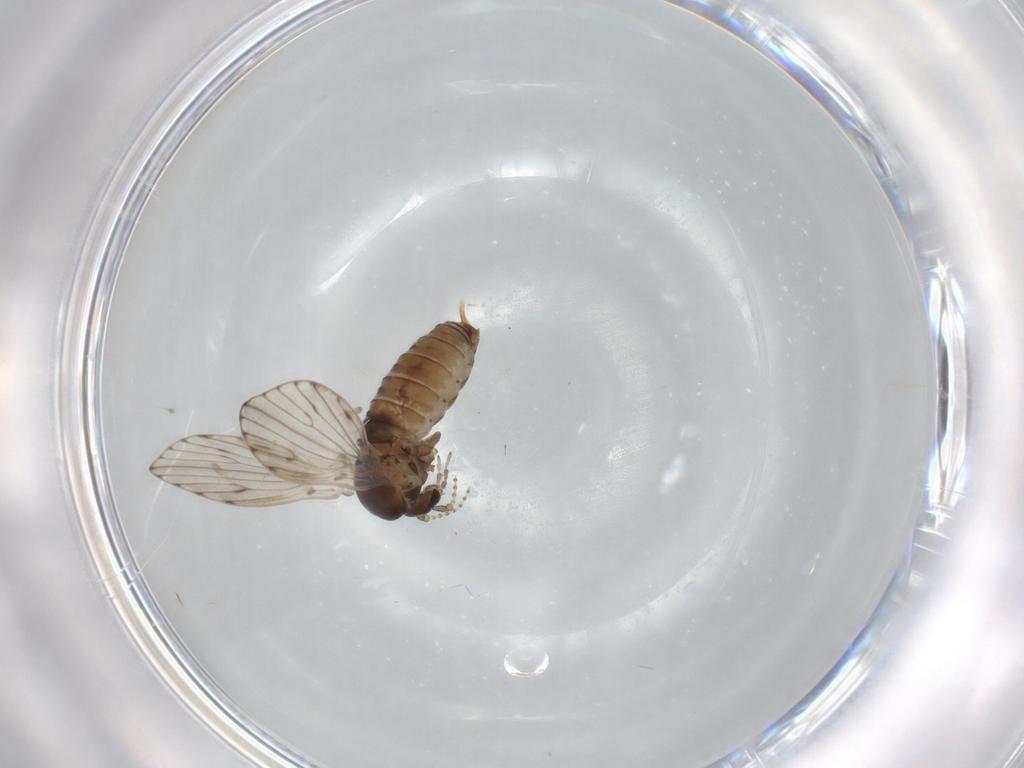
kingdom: Animalia
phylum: Arthropoda
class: Insecta
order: Diptera
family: Psychodidae
